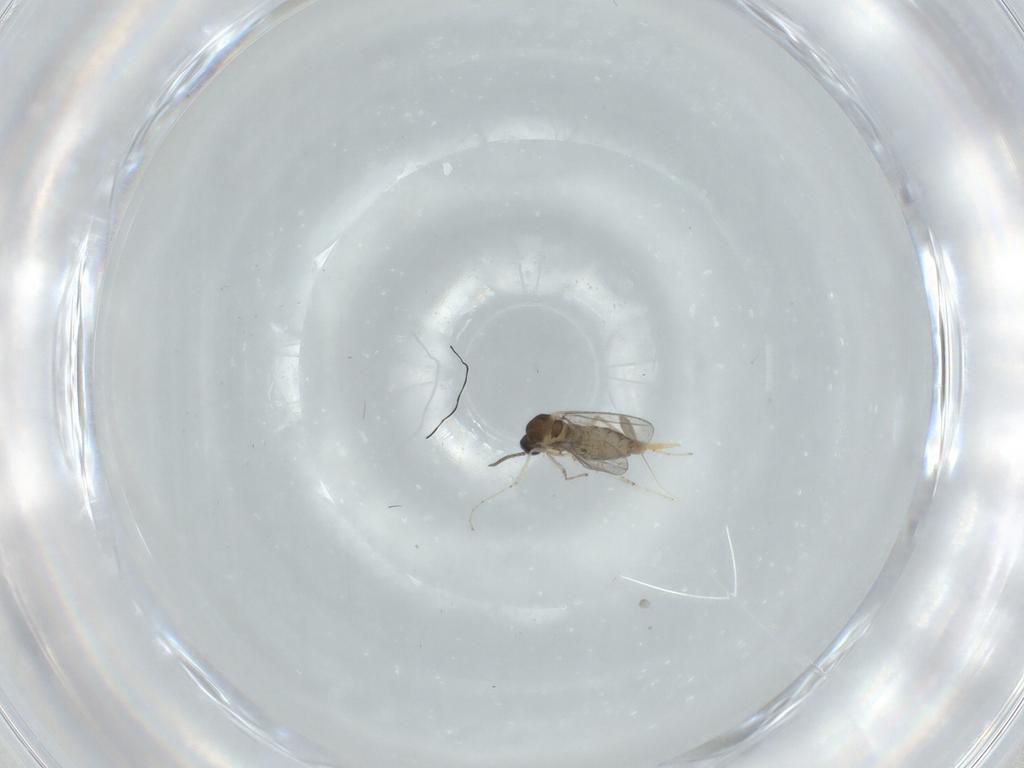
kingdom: Animalia
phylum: Arthropoda
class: Insecta
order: Diptera
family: Cecidomyiidae
